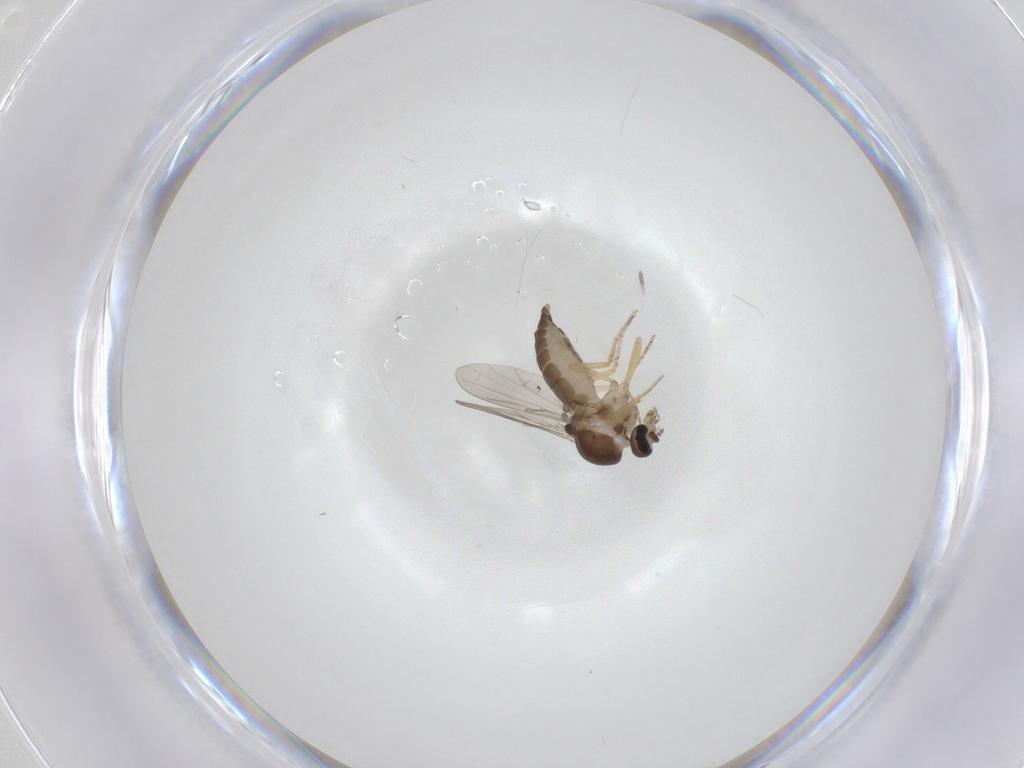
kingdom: Animalia
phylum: Arthropoda
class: Insecta
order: Diptera
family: Ceratopogonidae
